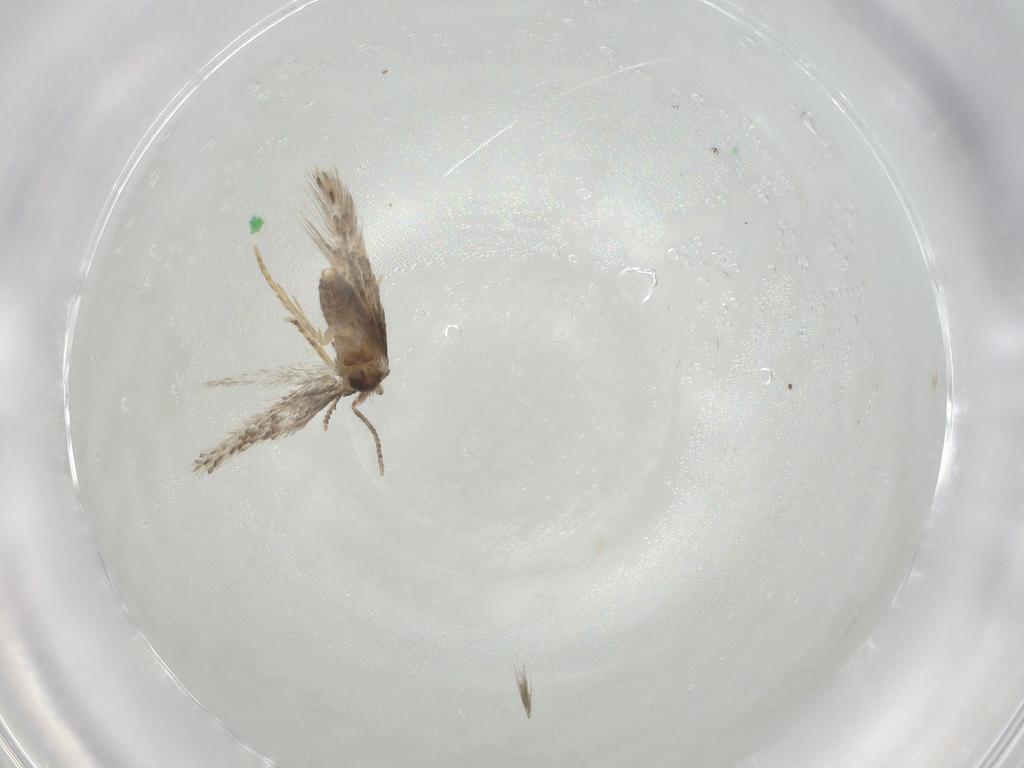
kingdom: Animalia
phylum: Arthropoda
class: Insecta
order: Lepidoptera
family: Nepticulidae
